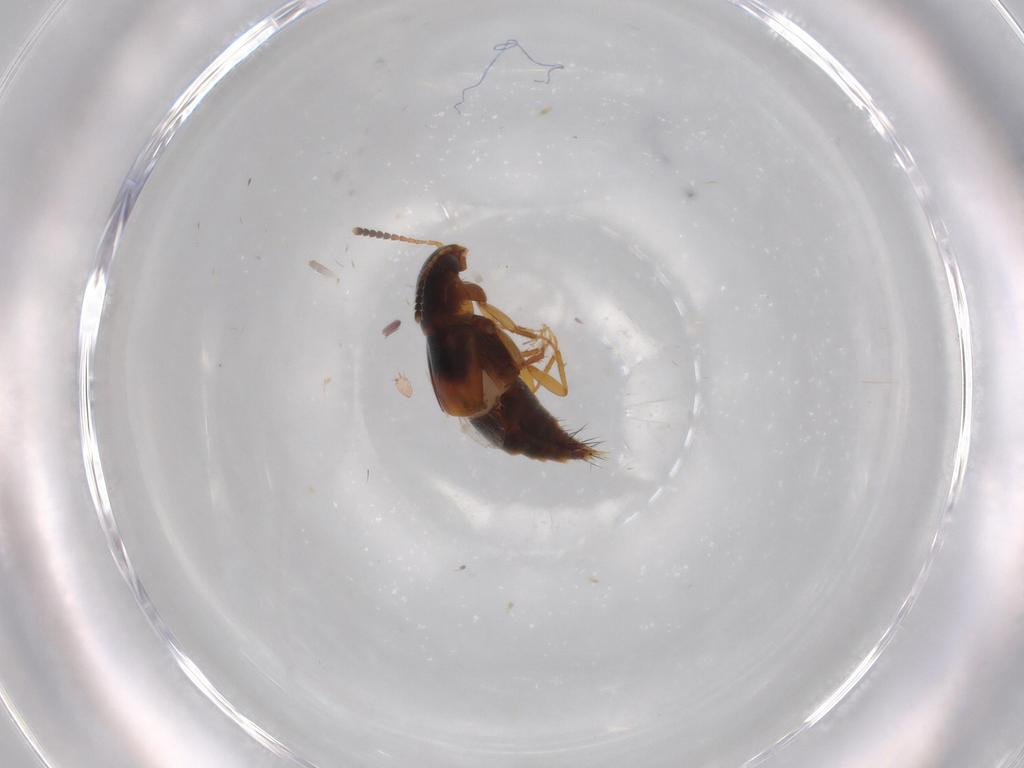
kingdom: Animalia
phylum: Arthropoda
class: Insecta
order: Coleoptera
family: Staphylinidae
